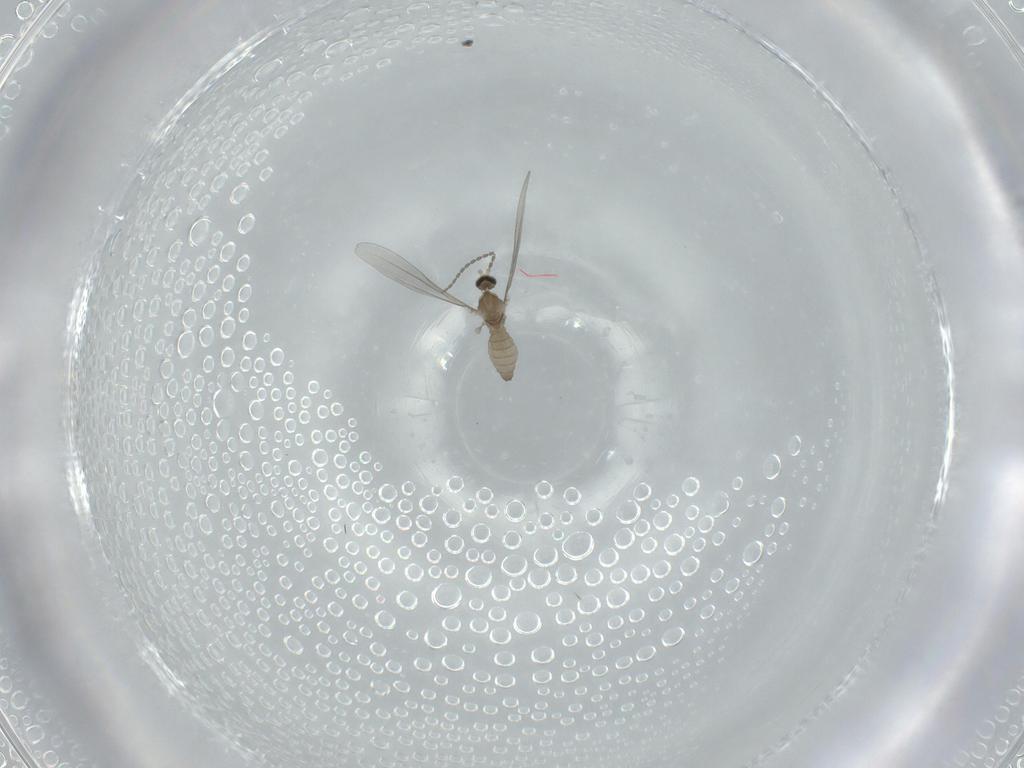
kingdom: Animalia
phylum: Arthropoda
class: Insecta
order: Diptera
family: Cecidomyiidae
